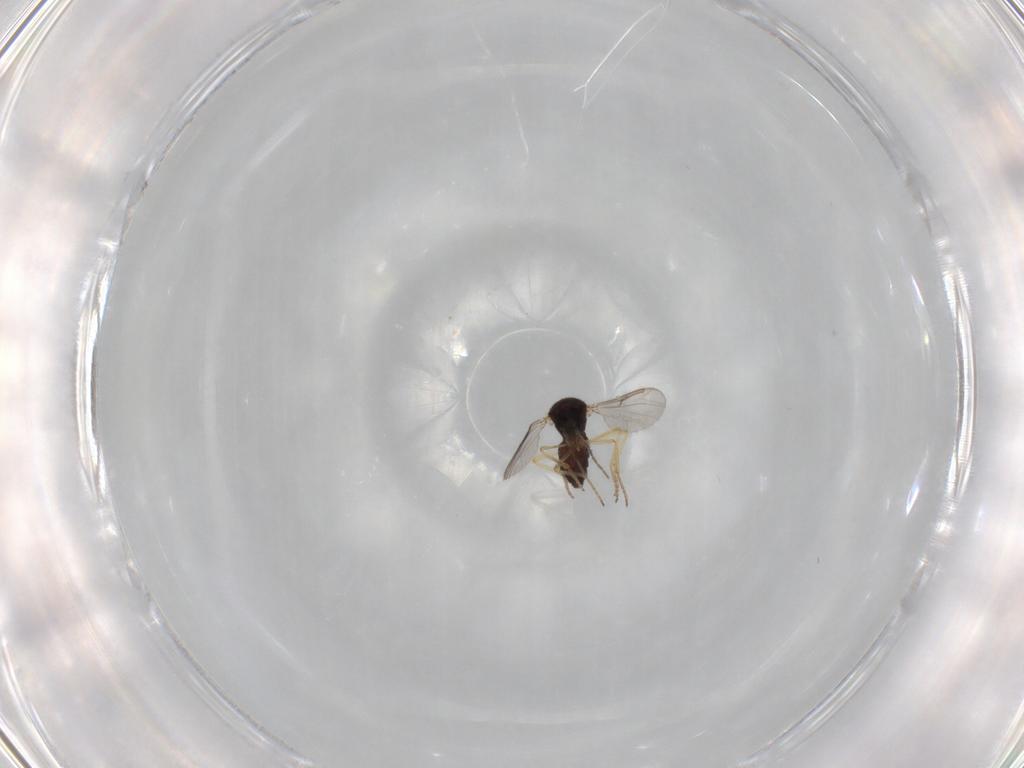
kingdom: Animalia
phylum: Arthropoda
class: Insecta
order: Diptera
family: Ceratopogonidae
